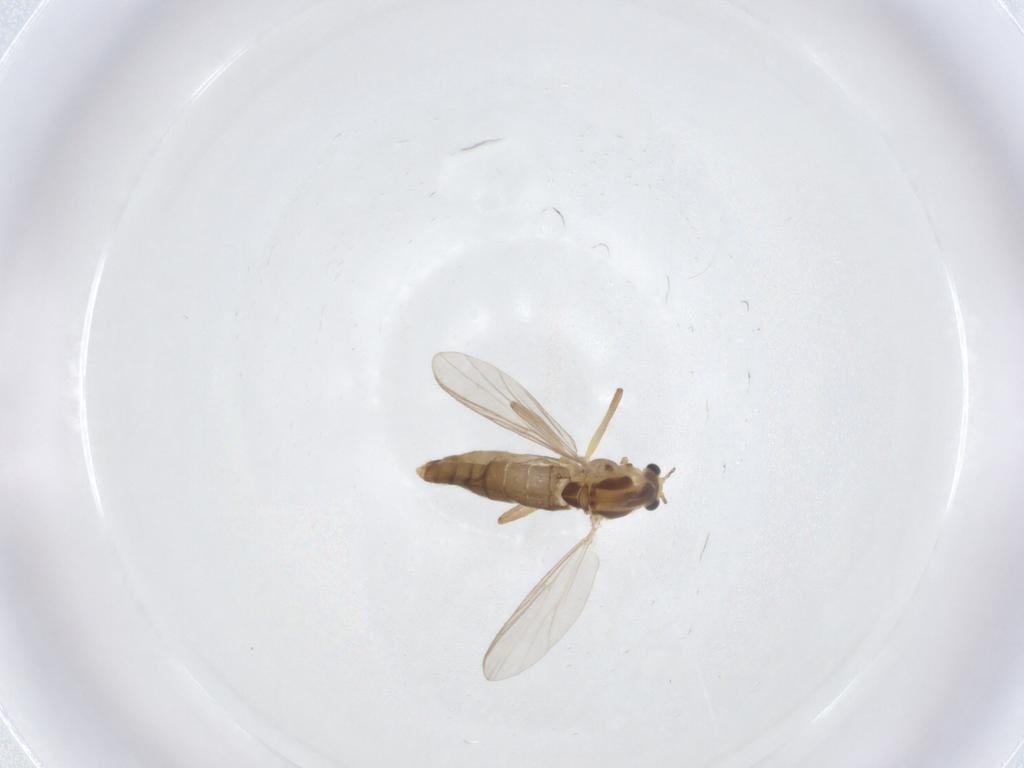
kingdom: Animalia
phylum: Arthropoda
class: Insecta
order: Diptera
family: Chironomidae
